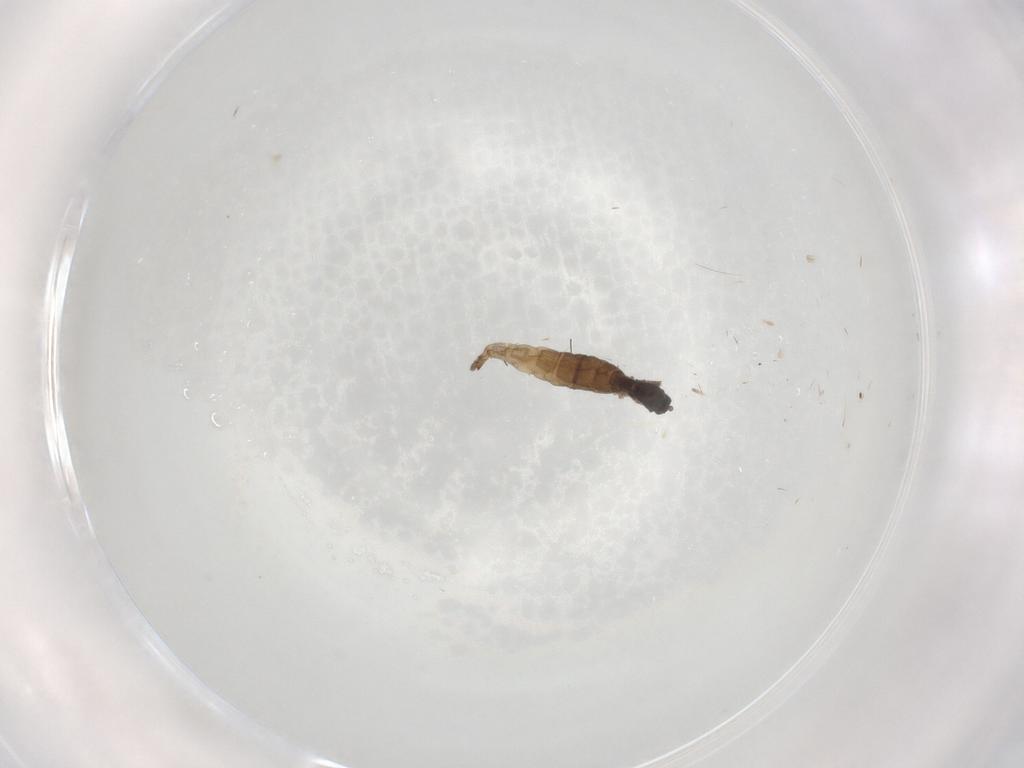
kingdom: Animalia
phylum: Arthropoda
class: Insecta
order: Diptera
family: Sciaridae
